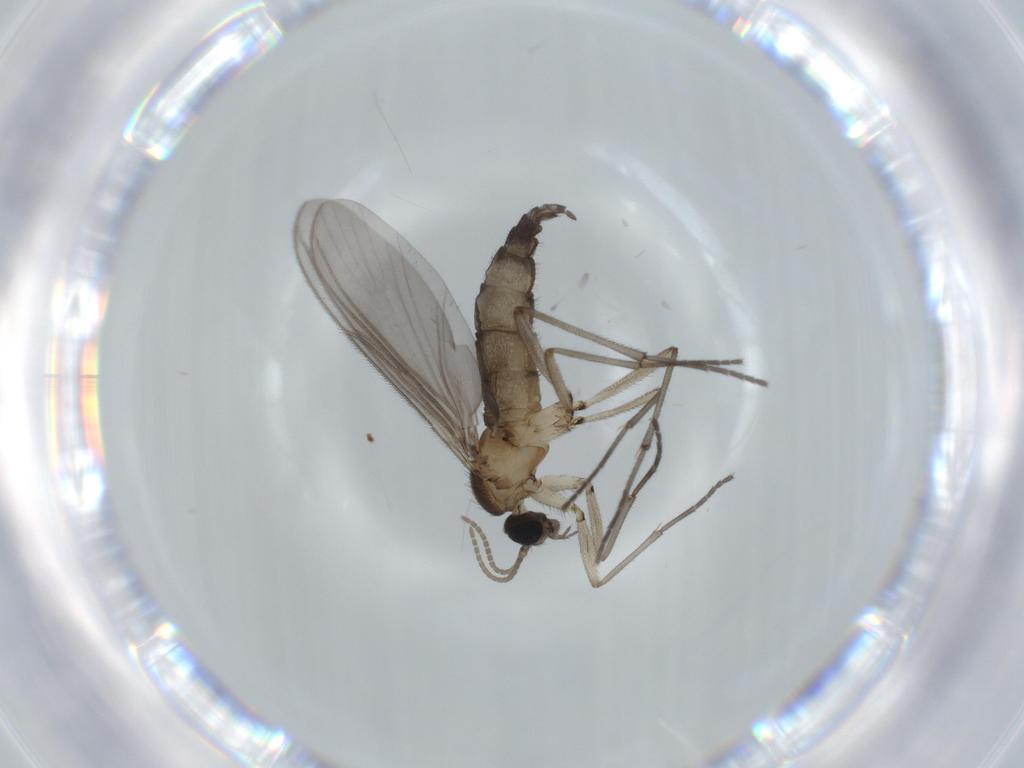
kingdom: Animalia
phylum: Arthropoda
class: Insecta
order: Diptera
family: Sciaridae
